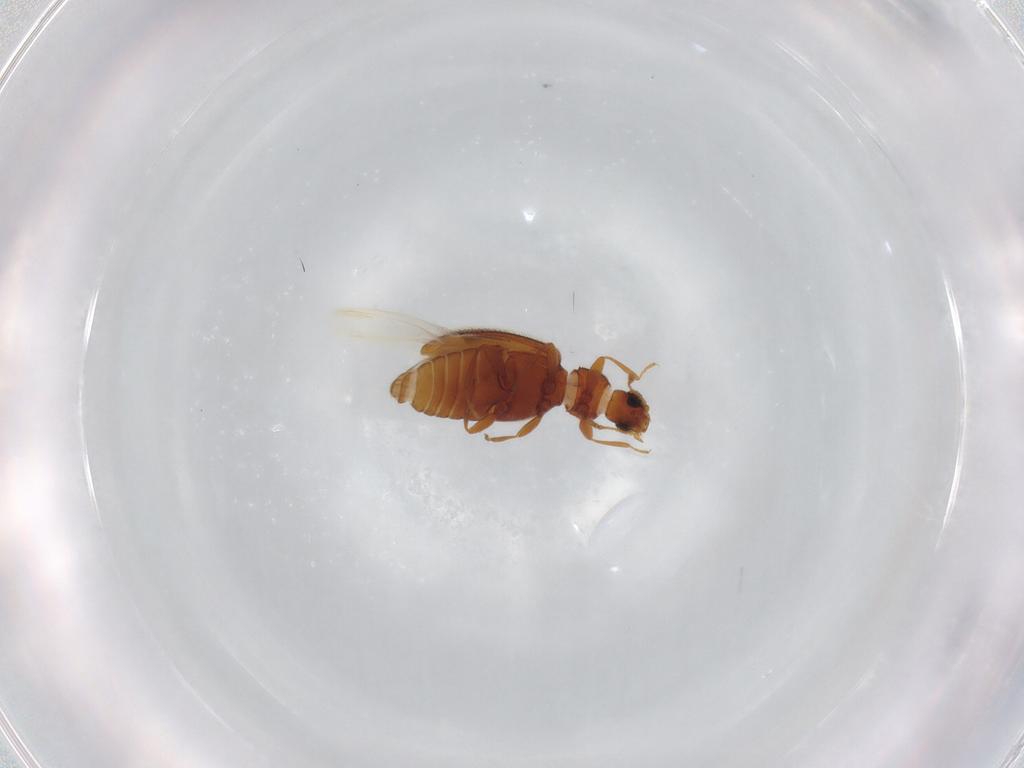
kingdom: Animalia
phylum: Arthropoda
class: Insecta
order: Coleoptera
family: Latridiidae
